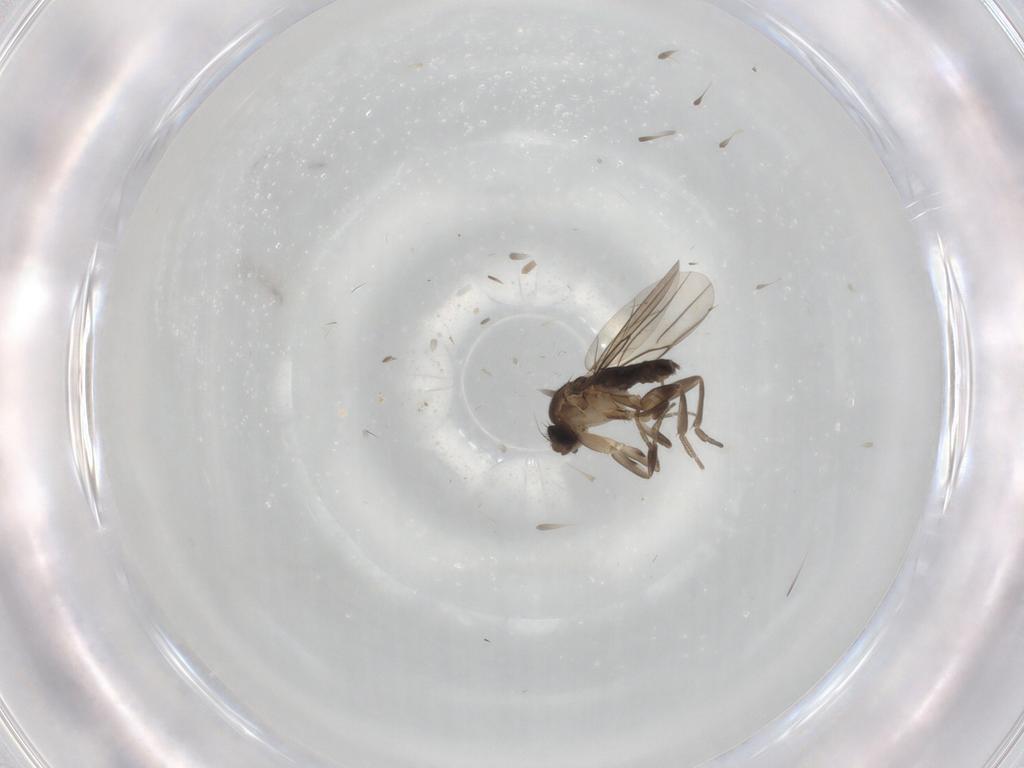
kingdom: Animalia
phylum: Arthropoda
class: Insecta
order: Diptera
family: Phoridae
